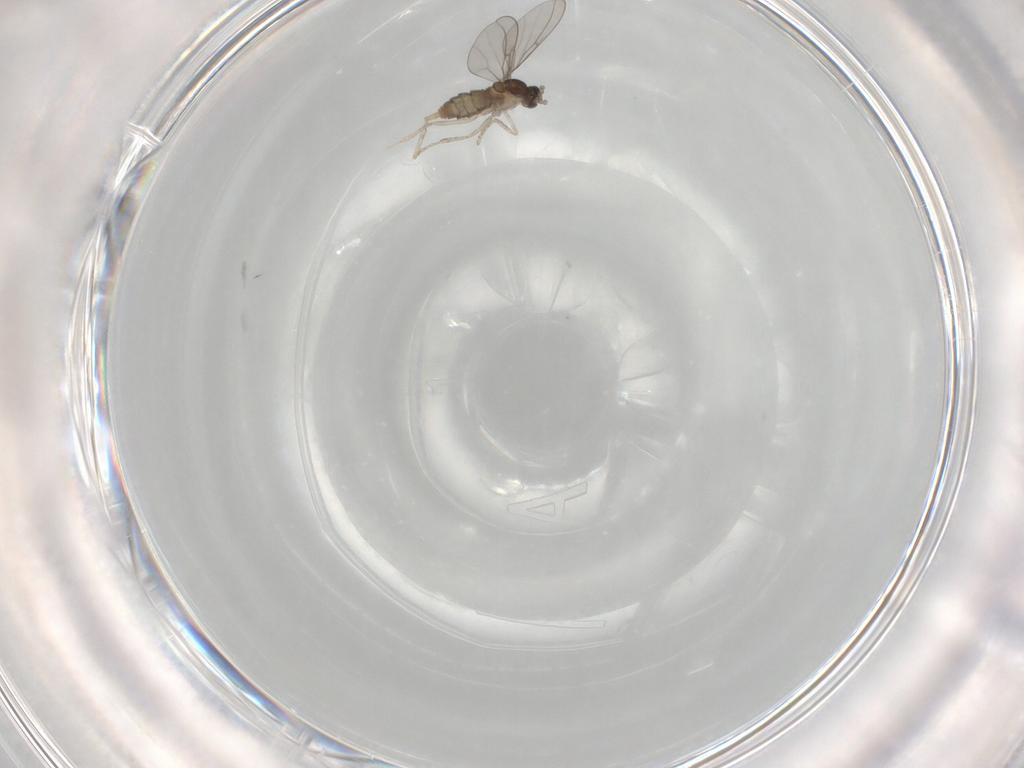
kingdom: Animalia
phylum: Arthropoda
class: Insecta
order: Diptera
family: Cecidomyiidae
